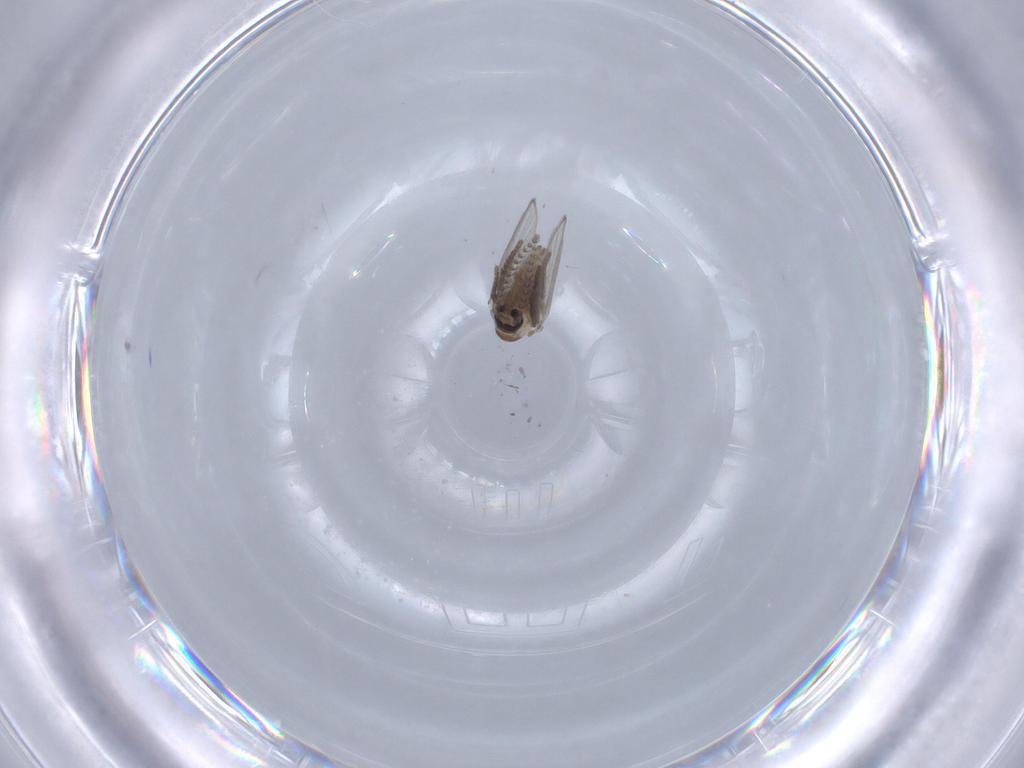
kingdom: Animalia
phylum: Arthropoda
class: Insecta
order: Diptera
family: Psychodidae
